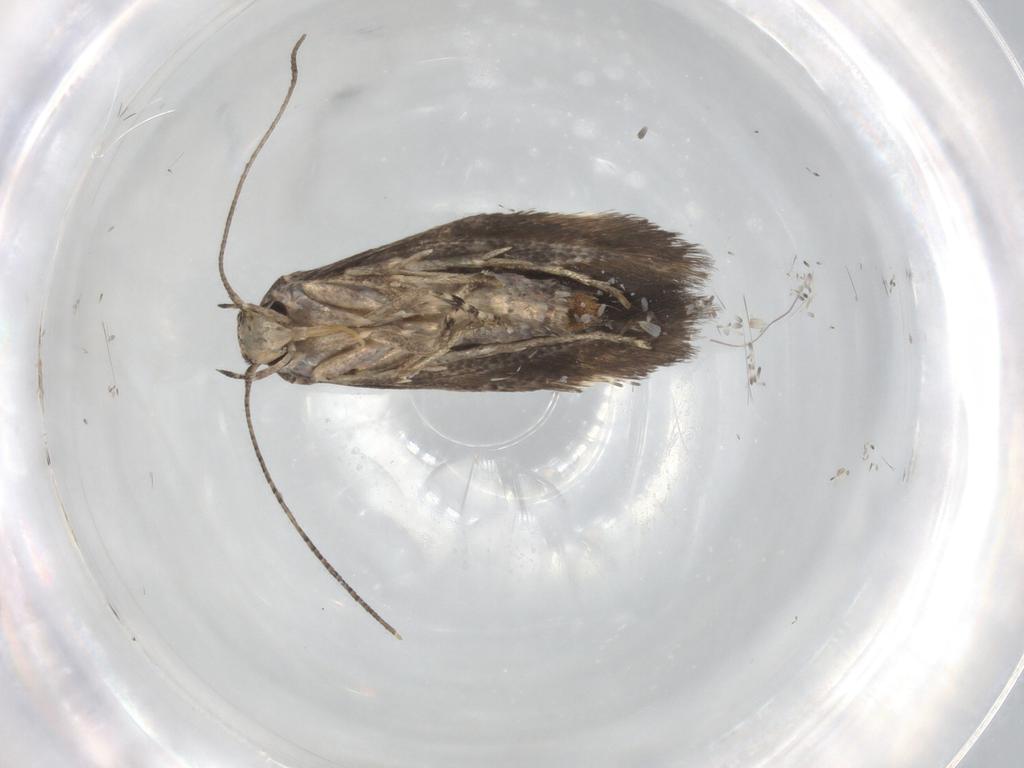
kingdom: Animalia
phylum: Arthropoda
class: Insecta
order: Lepidoptera
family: Elachistidae
